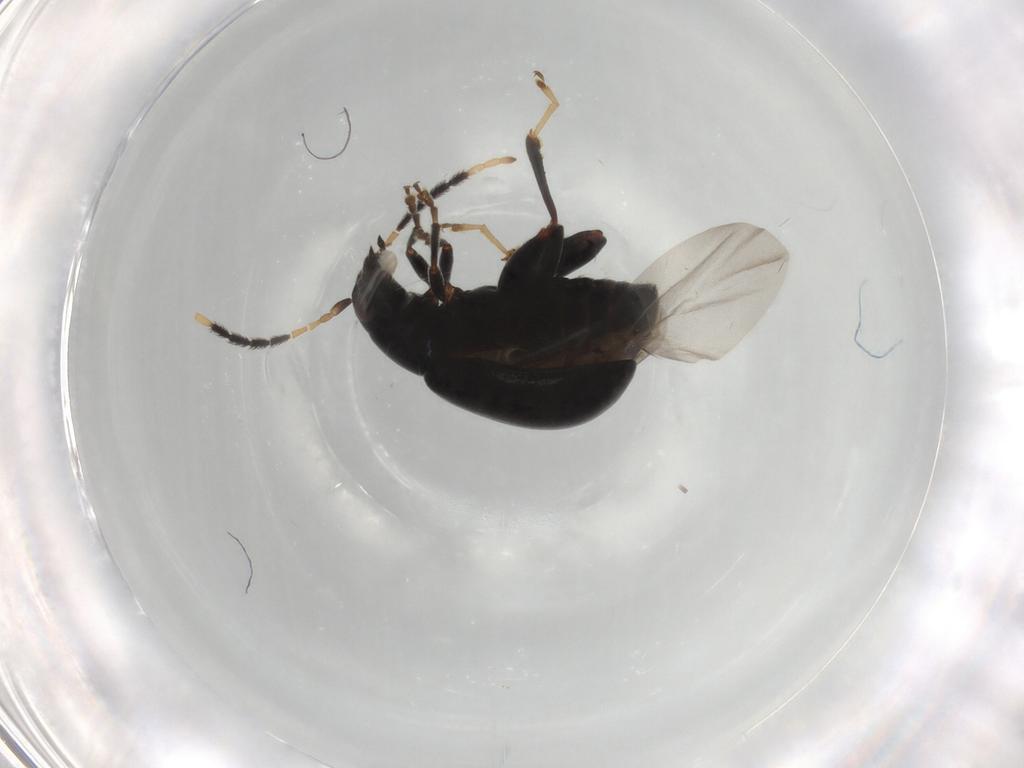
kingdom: Animalia
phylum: Arthropoda
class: Insecta
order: Coleoptera
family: Chrysomelidae
